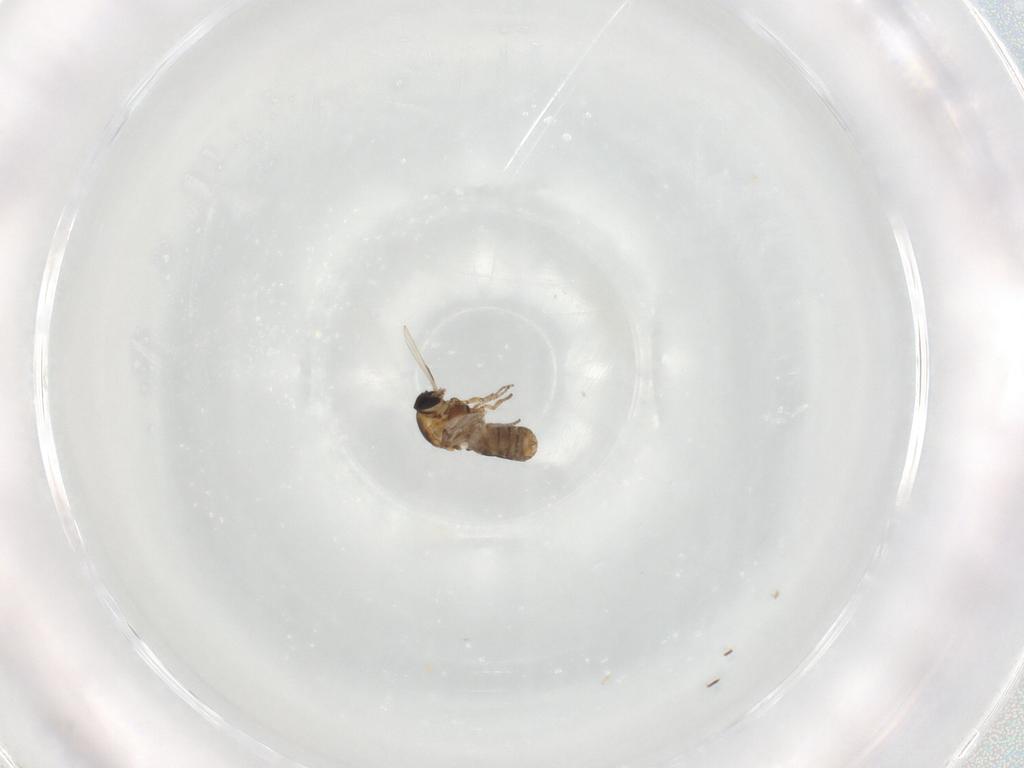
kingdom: Animalia
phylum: Arthropoda
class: Insecta
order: Diptera
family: Ceratopogonidae
